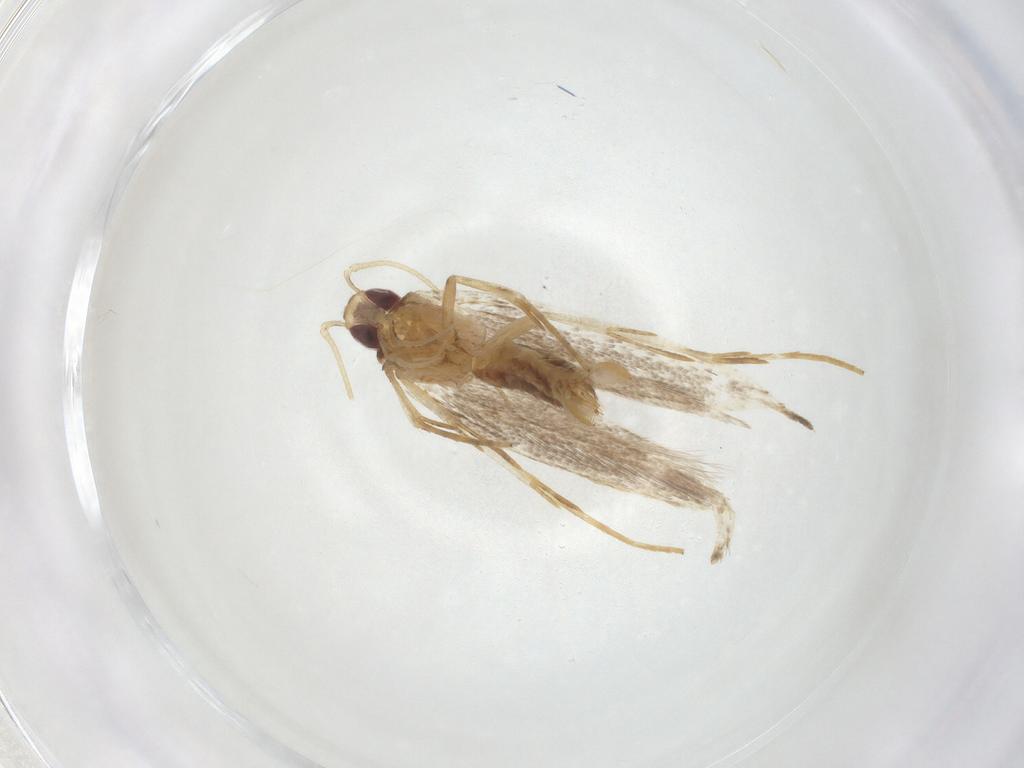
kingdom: Animalia
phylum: Arthropoda
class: Insecta
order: Lepidoptera
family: Cosmopterigidae
